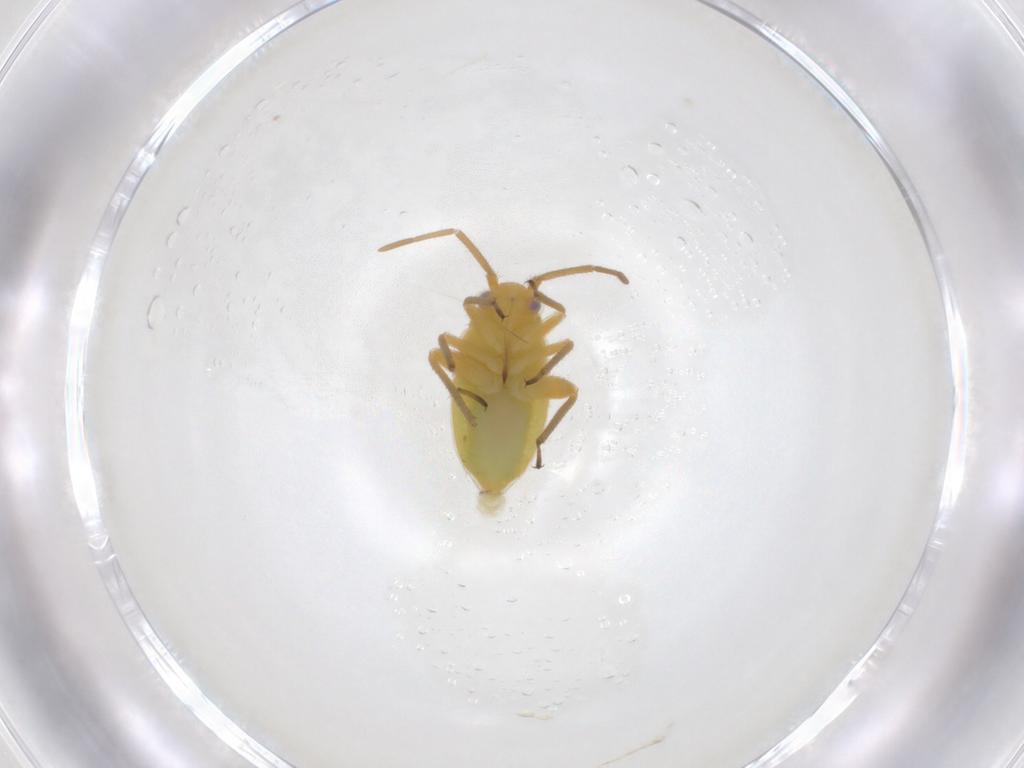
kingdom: Animalia
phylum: Arthropoda
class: Insecta
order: Hemiptera
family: Miridae
